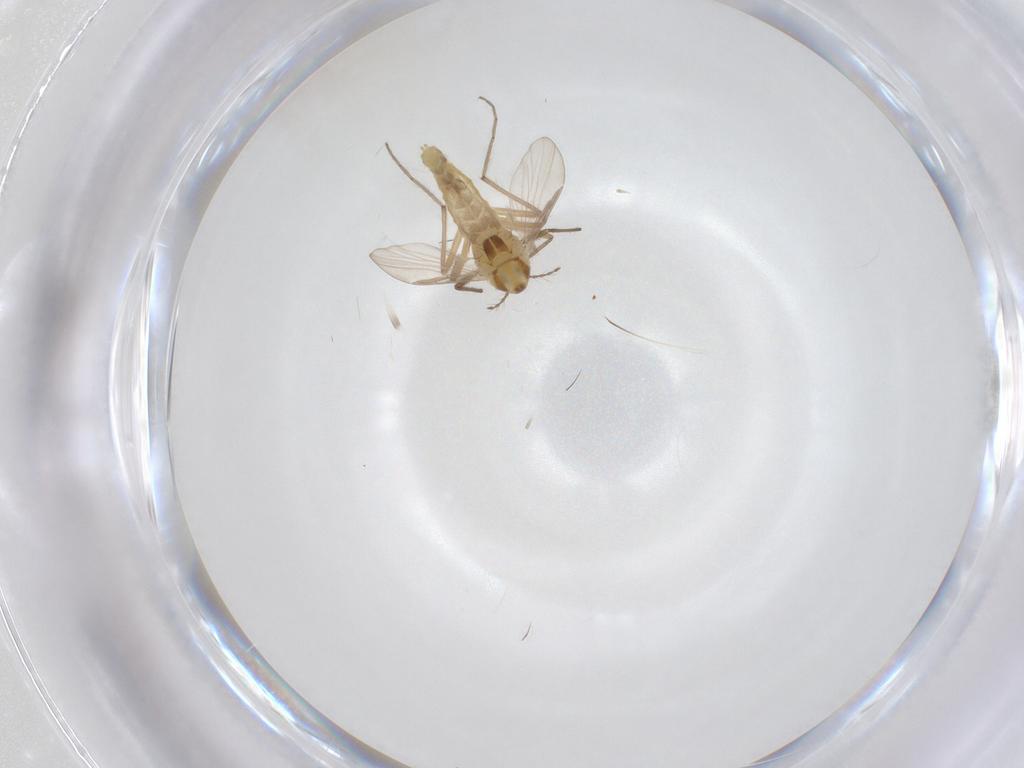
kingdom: Animalia
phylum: Arthropoda
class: Insecta
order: Diptera
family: Chironomidae
